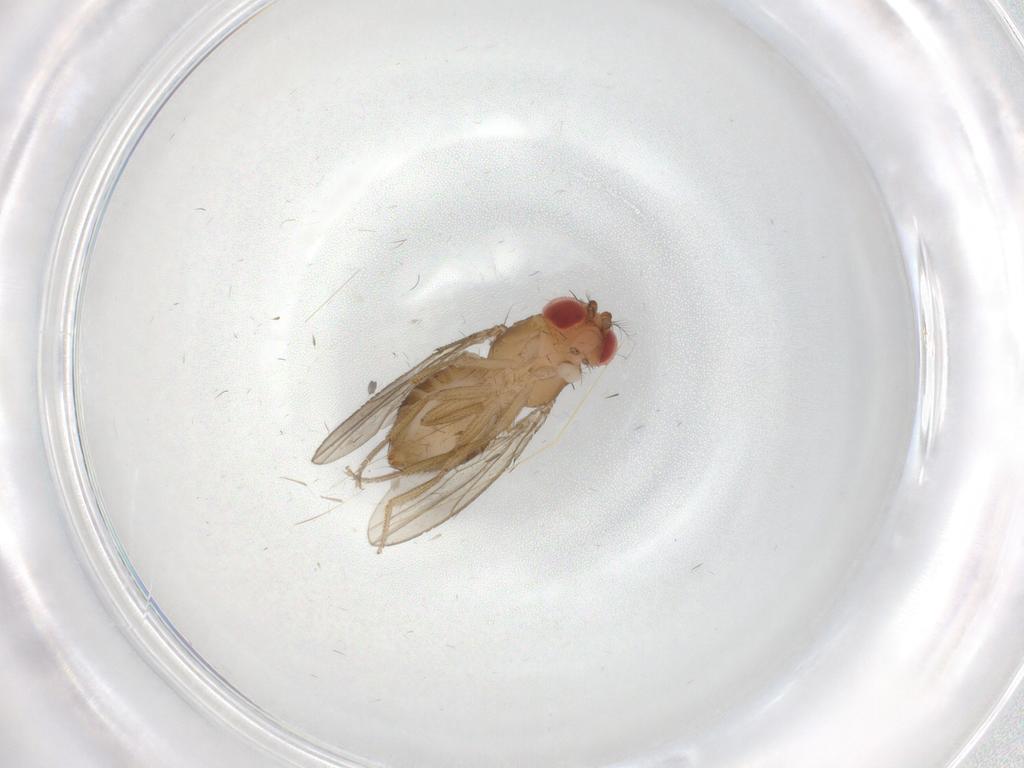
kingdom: Animalia
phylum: Arthropoda
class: Insecta
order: Diptera
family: Drosophilidae
